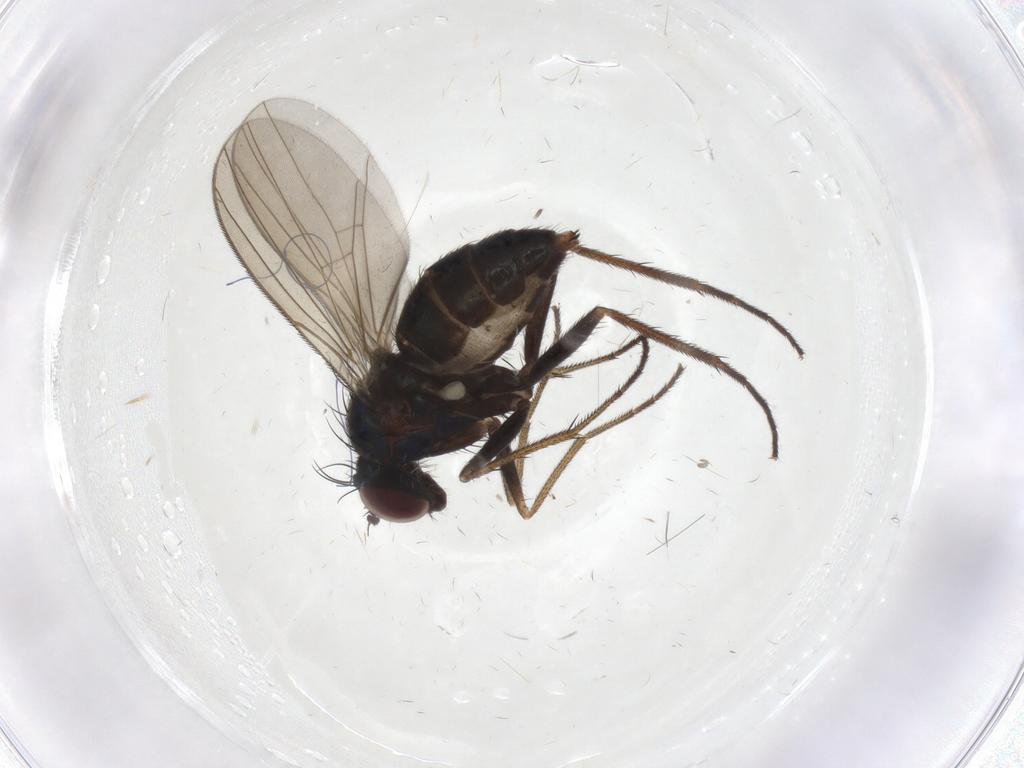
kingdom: Animalia
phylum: Arthropoda
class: Insecta
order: Diptera
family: Dolichopodidae
